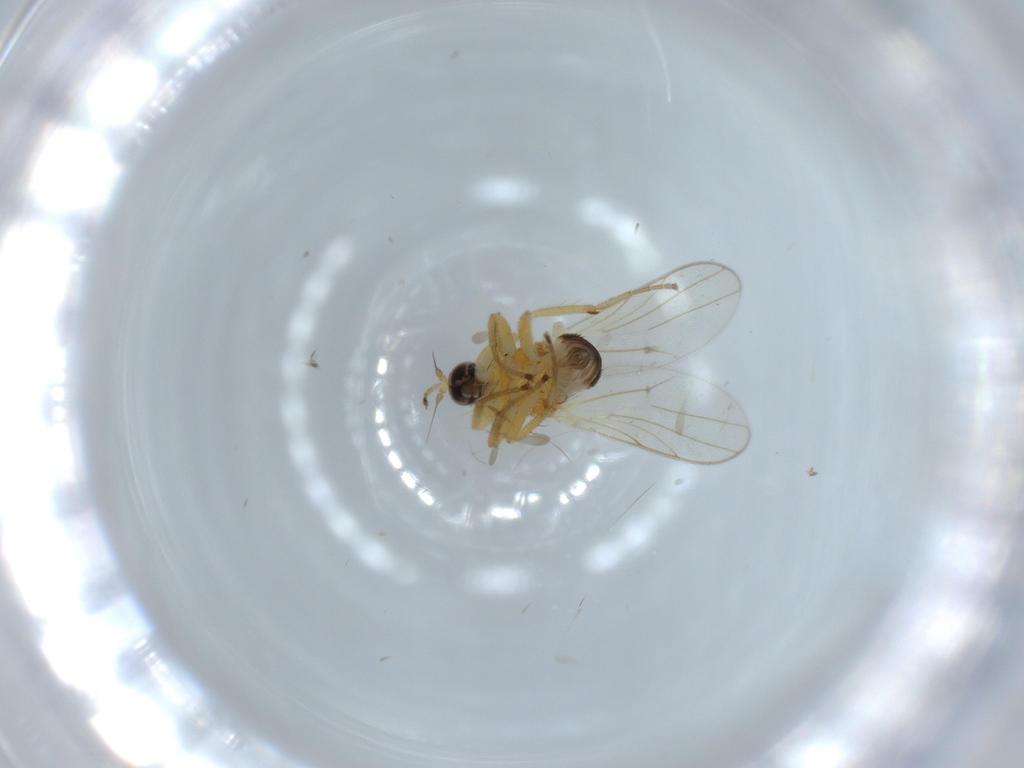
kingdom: Animalia
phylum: Arthropoda
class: Insecta
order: Diptera
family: Hybotidae
